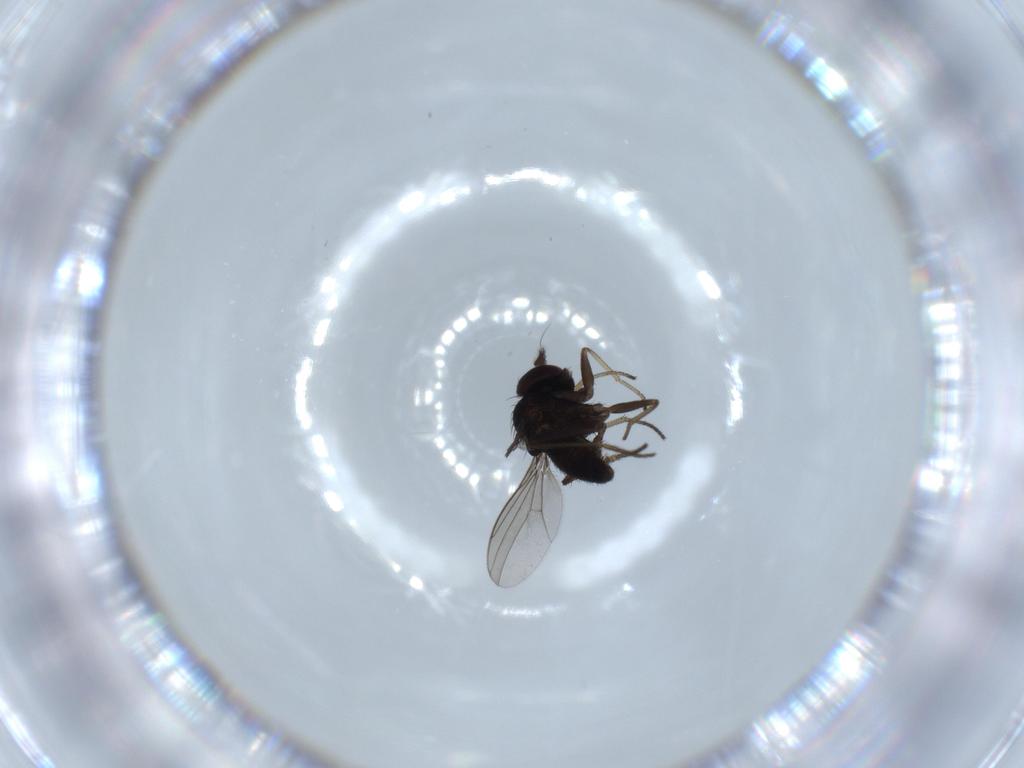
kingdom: Animalia
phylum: Arthropoda
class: Insecta
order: Diptera
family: Dolichopodidae
